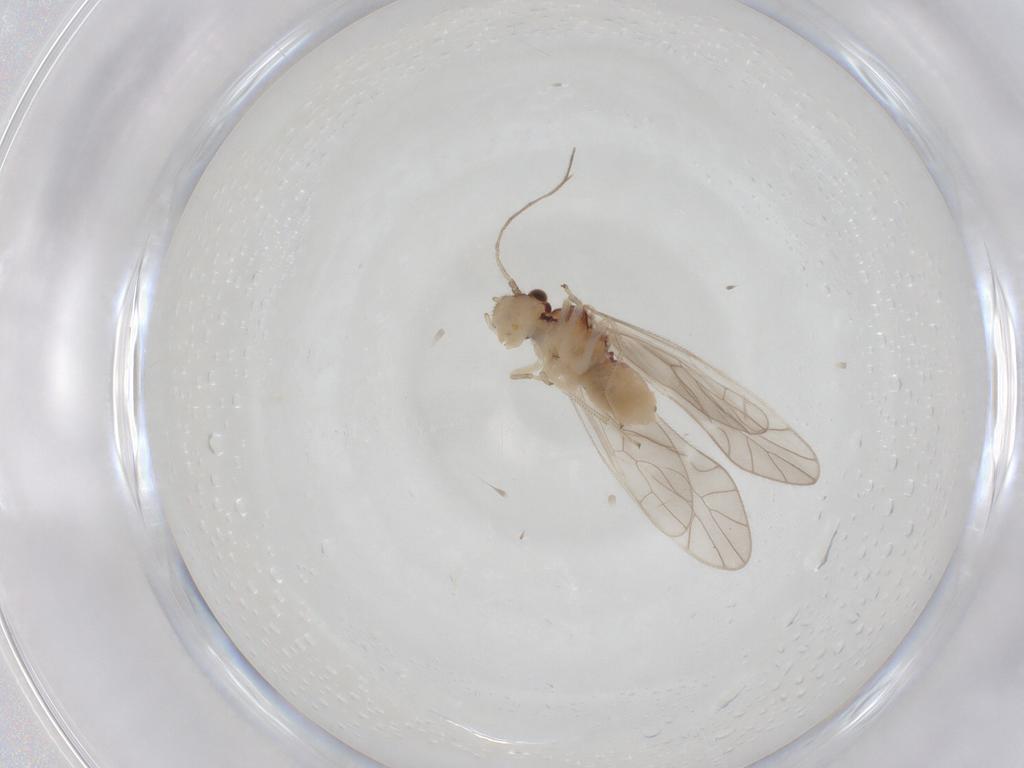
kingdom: Animalia
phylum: Arthropoda
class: Insecta
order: Psocodea
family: Caeciliusidae
